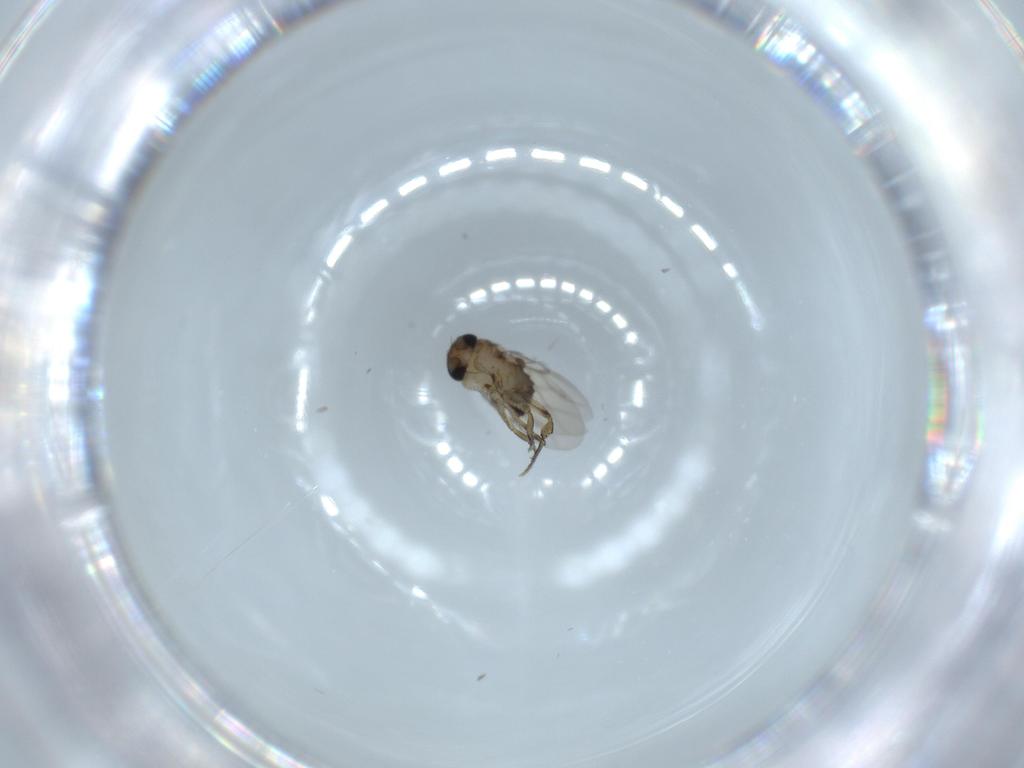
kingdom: Animalia
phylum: Arthropoda
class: Insecta
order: Diptera
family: Phoridae
